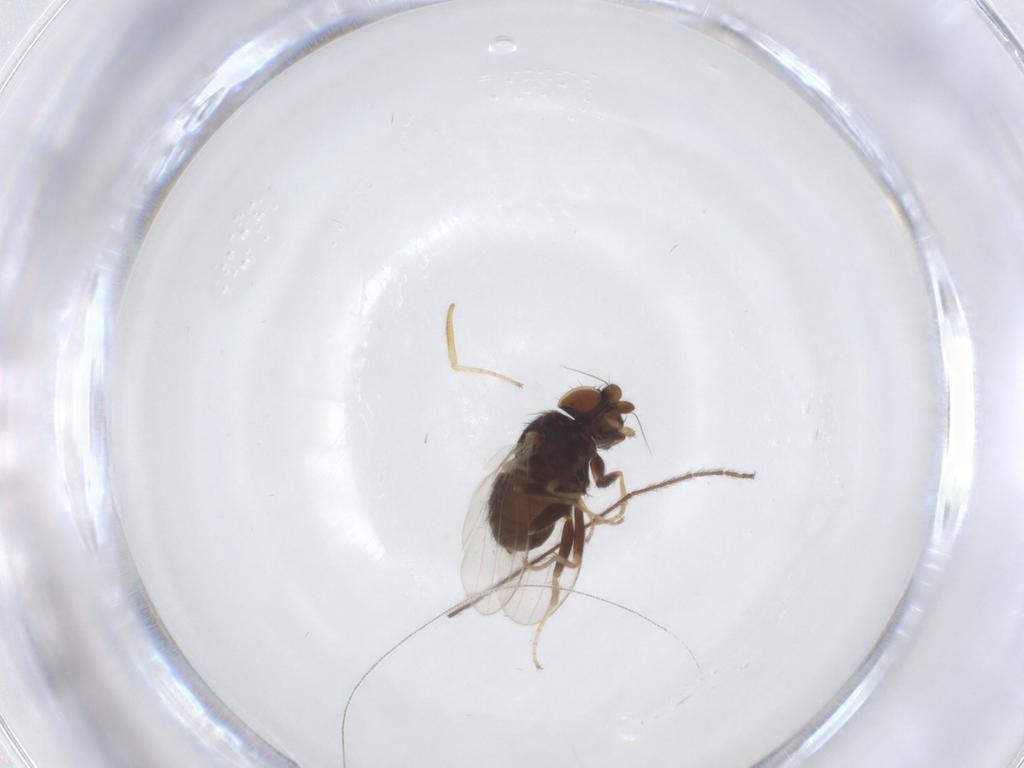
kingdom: Animalia
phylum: Arthropoda
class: Insecta
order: Diptera
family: Milichiidae
